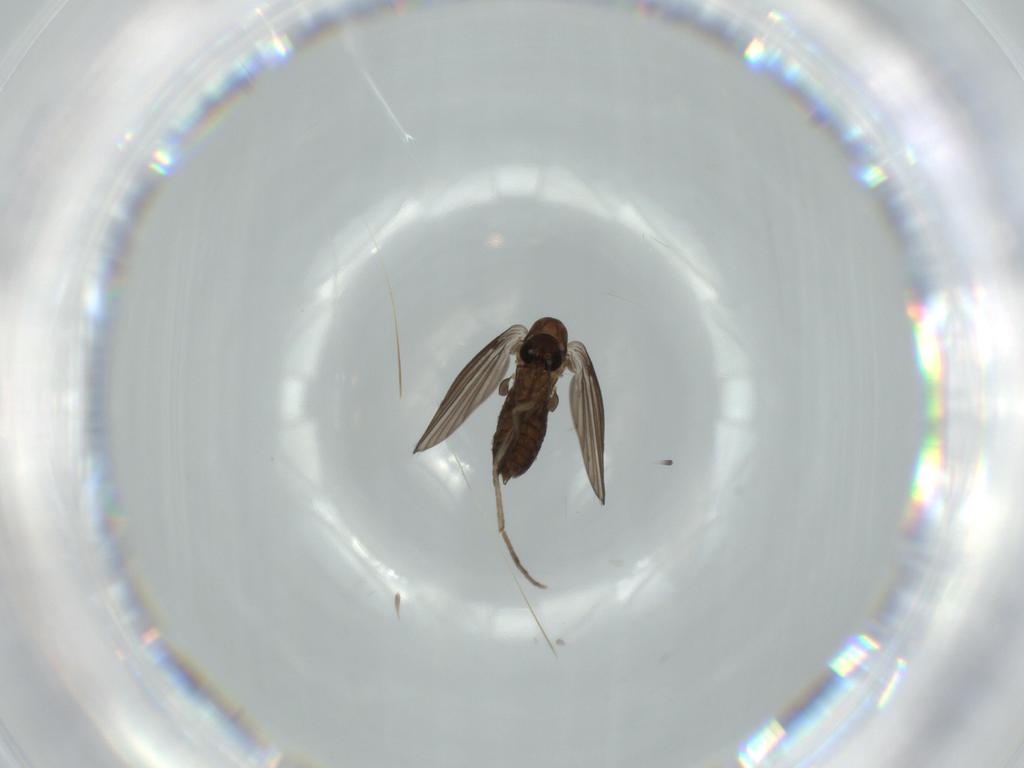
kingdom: Animalia
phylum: Arthropoda
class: Insecta
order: Diptera
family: Psychodidae
